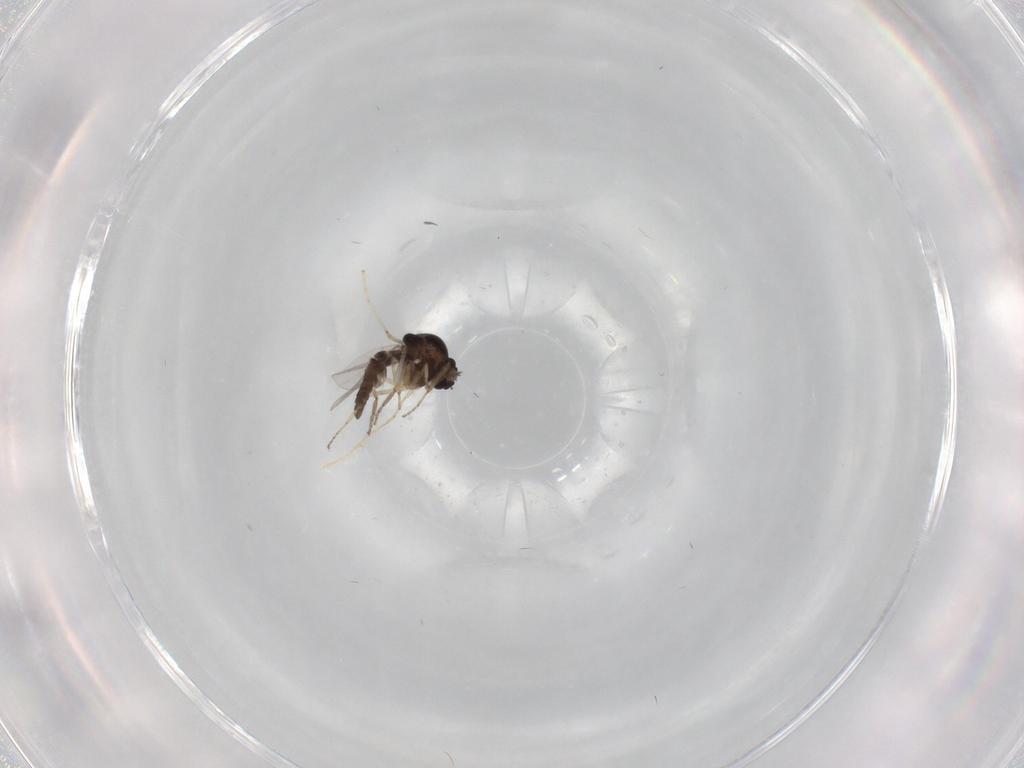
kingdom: Animalia
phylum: Arthropoda
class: Insecta
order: Diptera
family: Cecidomyiidae
